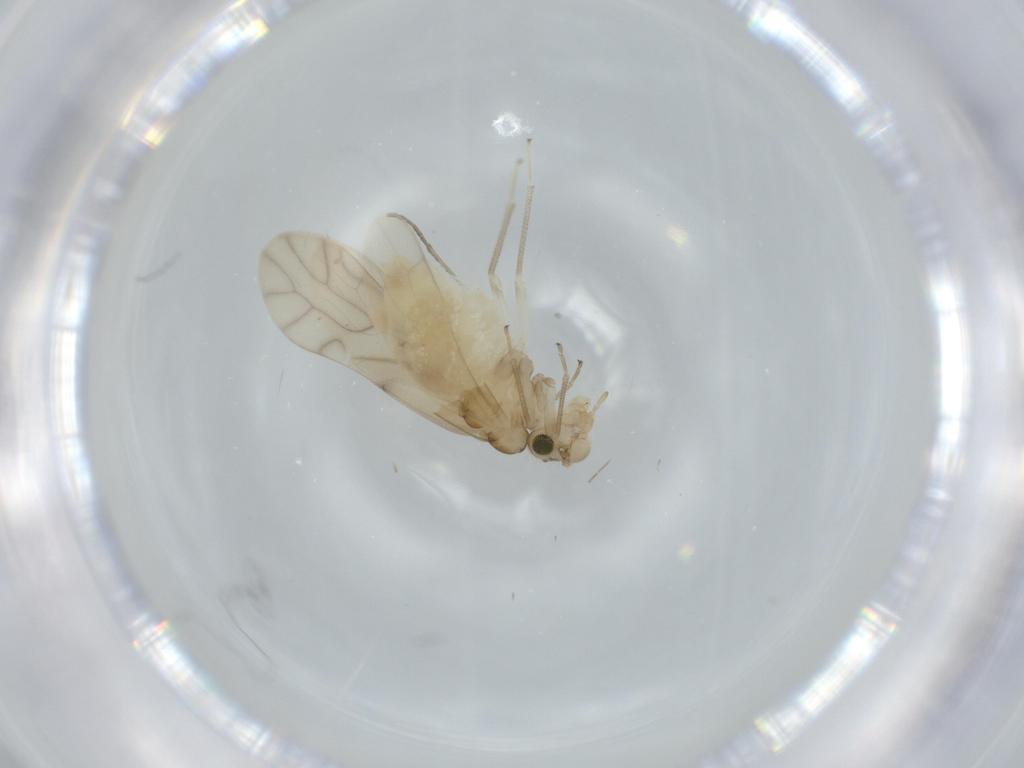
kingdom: Animalia
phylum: Arthropoda
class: Insecta
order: Psocodea
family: Caeciliusidae
